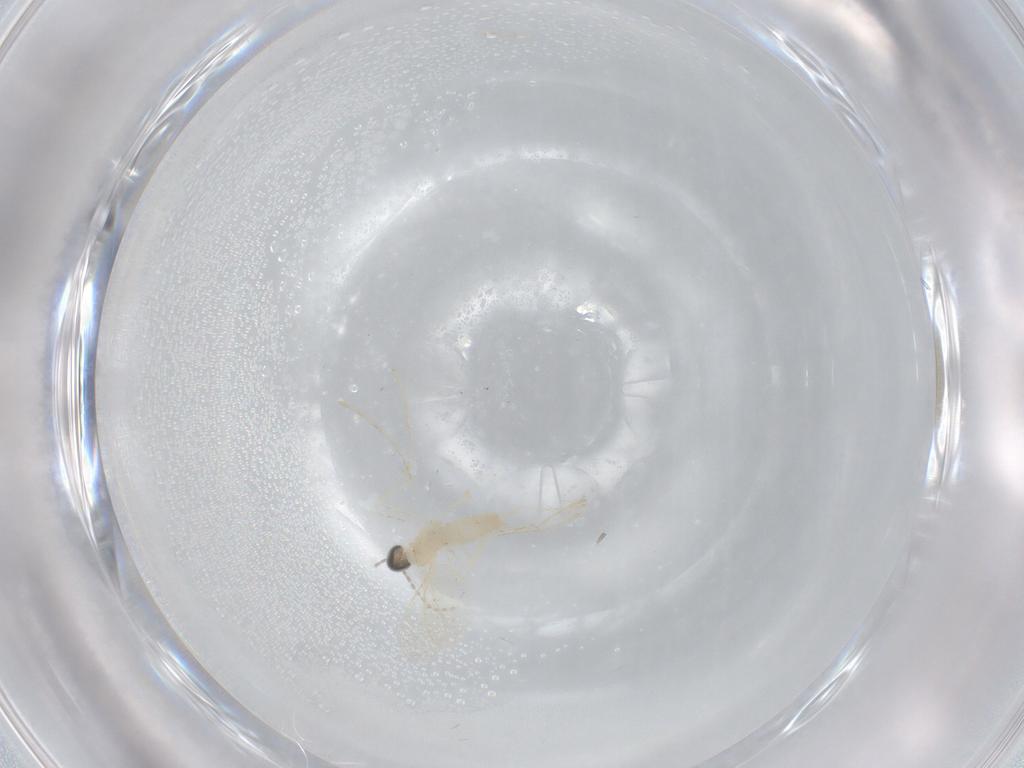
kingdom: Animalia
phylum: Arthropoda
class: Insecta
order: Diptera
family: Cecidomyiidae
